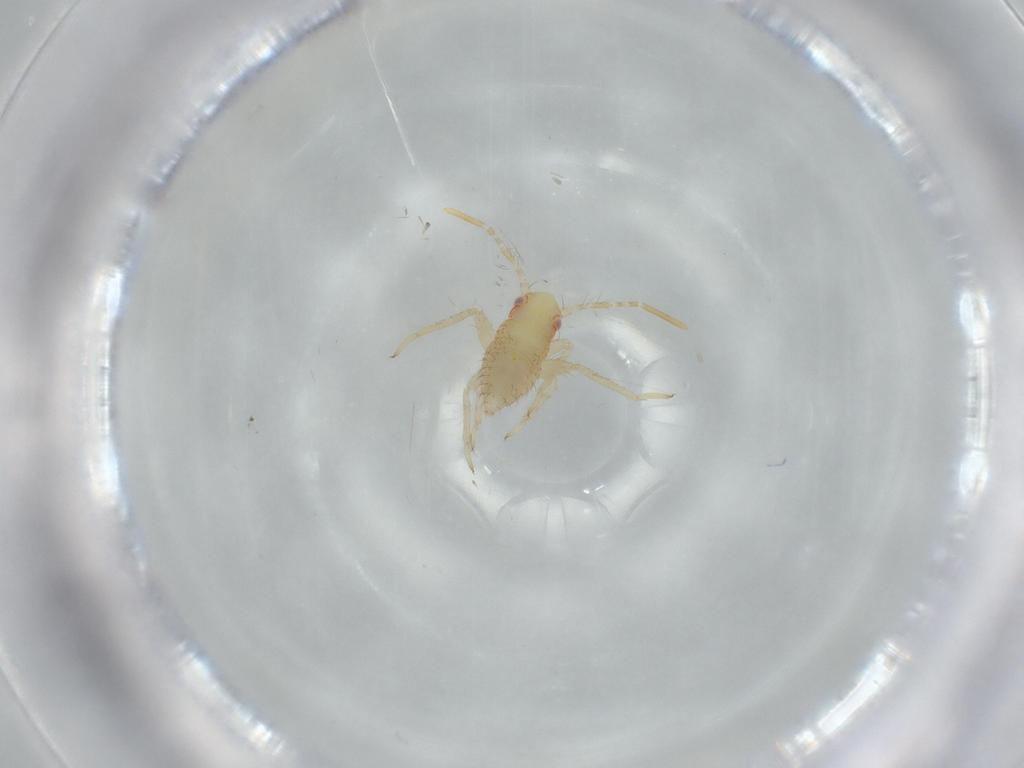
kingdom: Animalia
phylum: Arthropoda
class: Insecta
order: Hemiptera
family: Miridae
